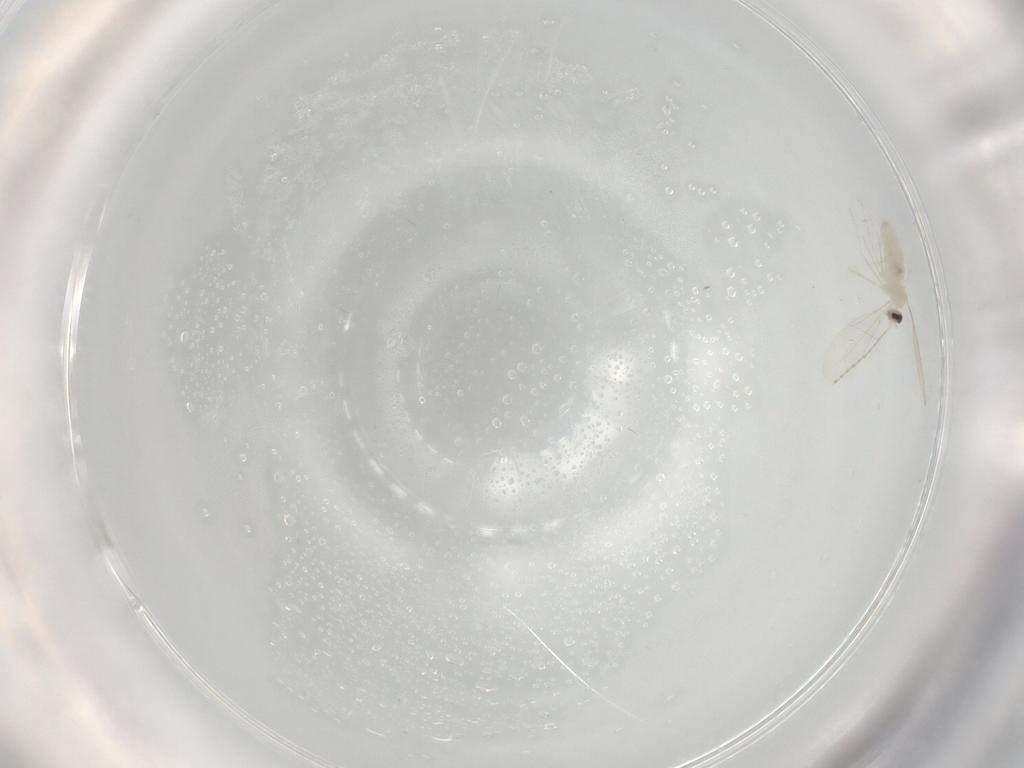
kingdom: Animalia
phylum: Arthropoda
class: Insecta
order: Diptera
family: Cecidomyiidae
